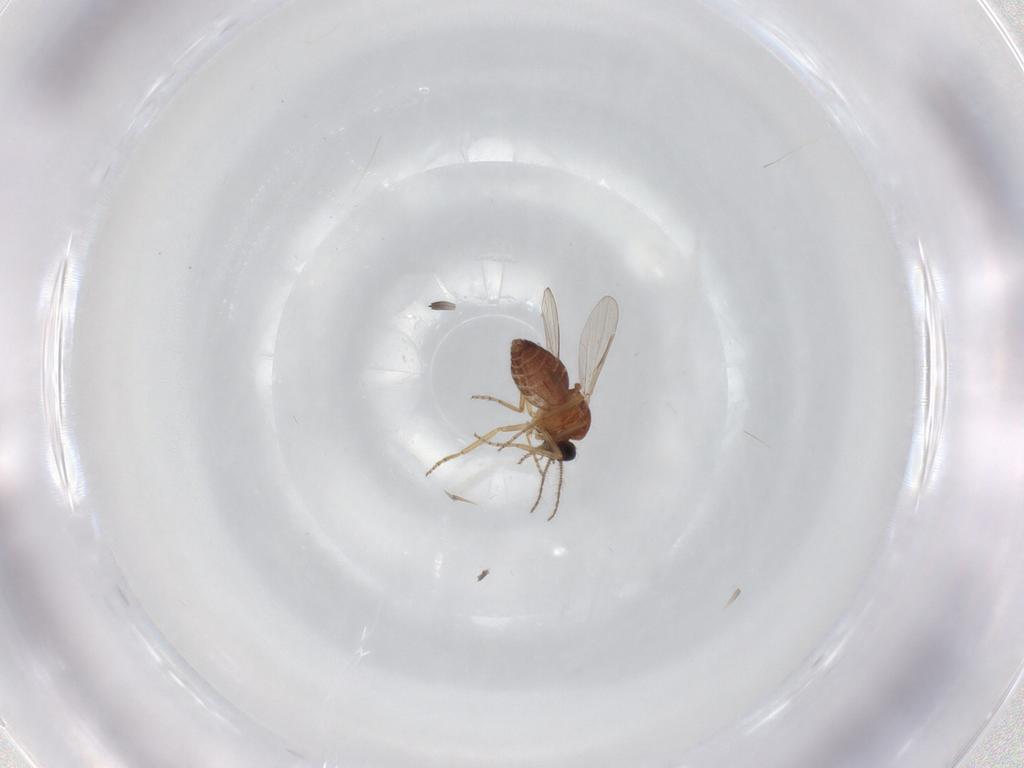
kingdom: Animalia
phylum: Arthropoda
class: Insecta
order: Diptera
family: Ceratopogonidae
